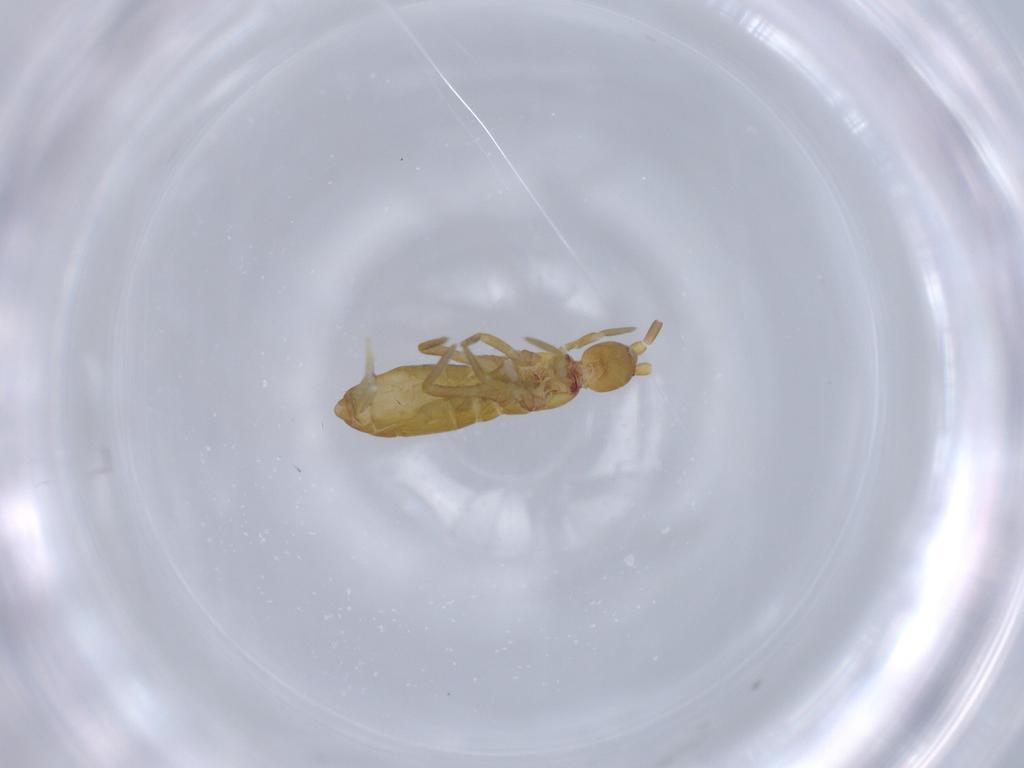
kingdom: Animalia
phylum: Arthropoda
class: Collembola
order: Entomobryomorpha
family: Tomoceridae
